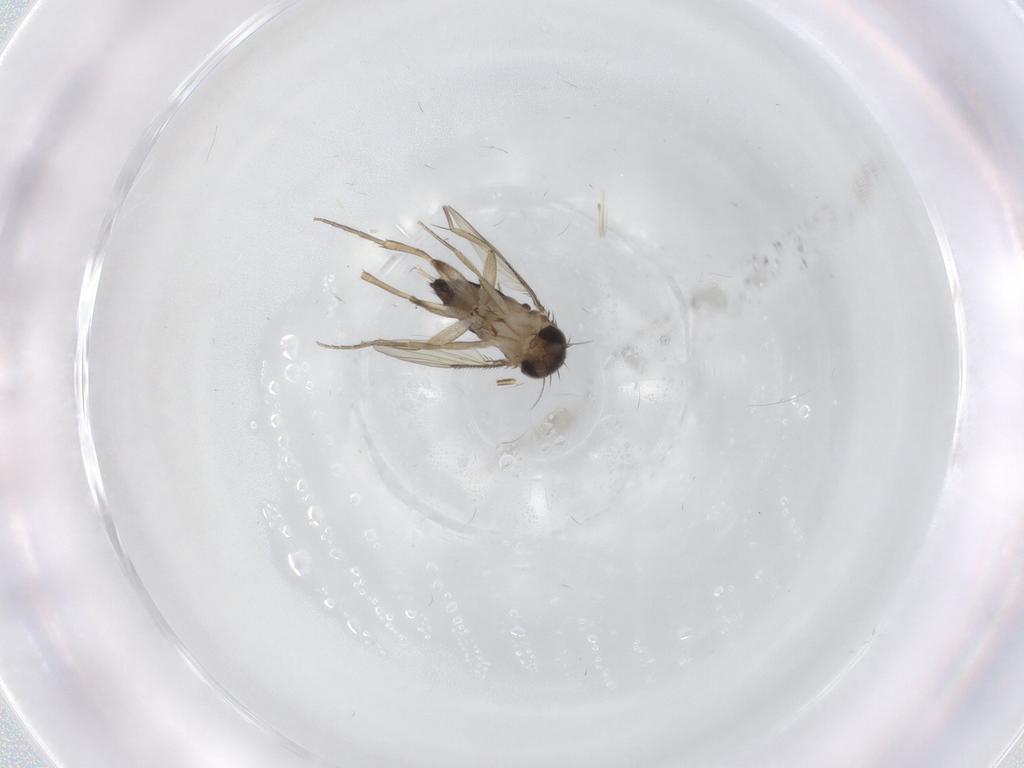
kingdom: Animalia
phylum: Arthropoda
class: Insecta
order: Diptera
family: Phoridae
